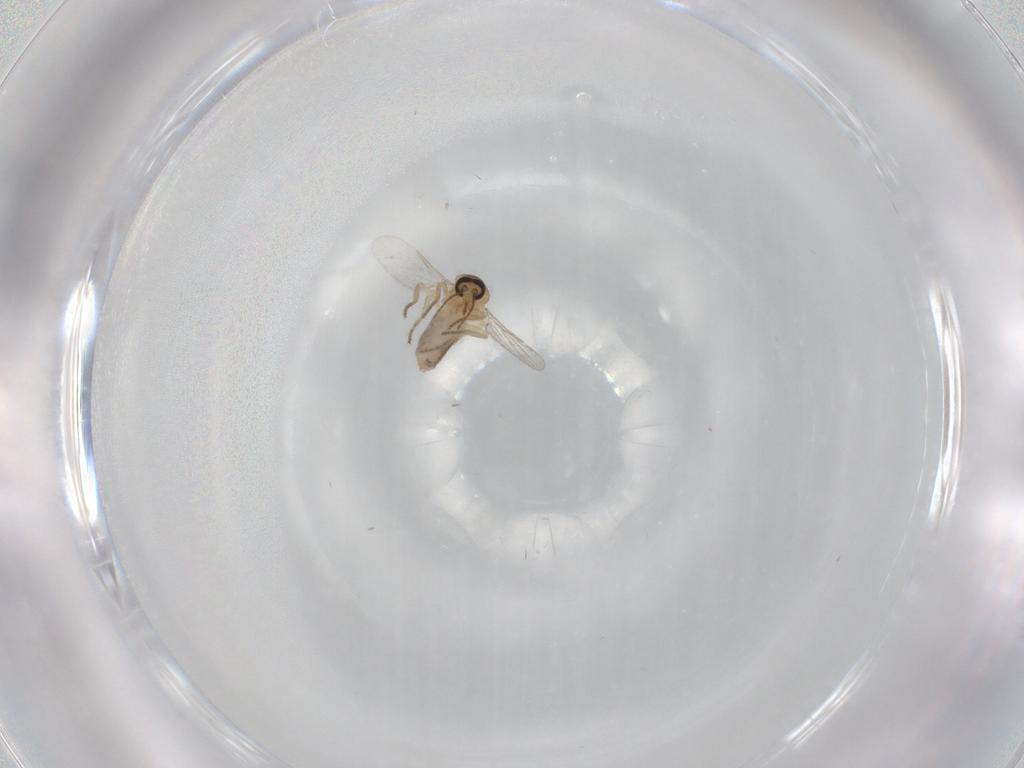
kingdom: Animalia
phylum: Arthropoda
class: Insecta
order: Diptera
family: Ceratopogonidae
